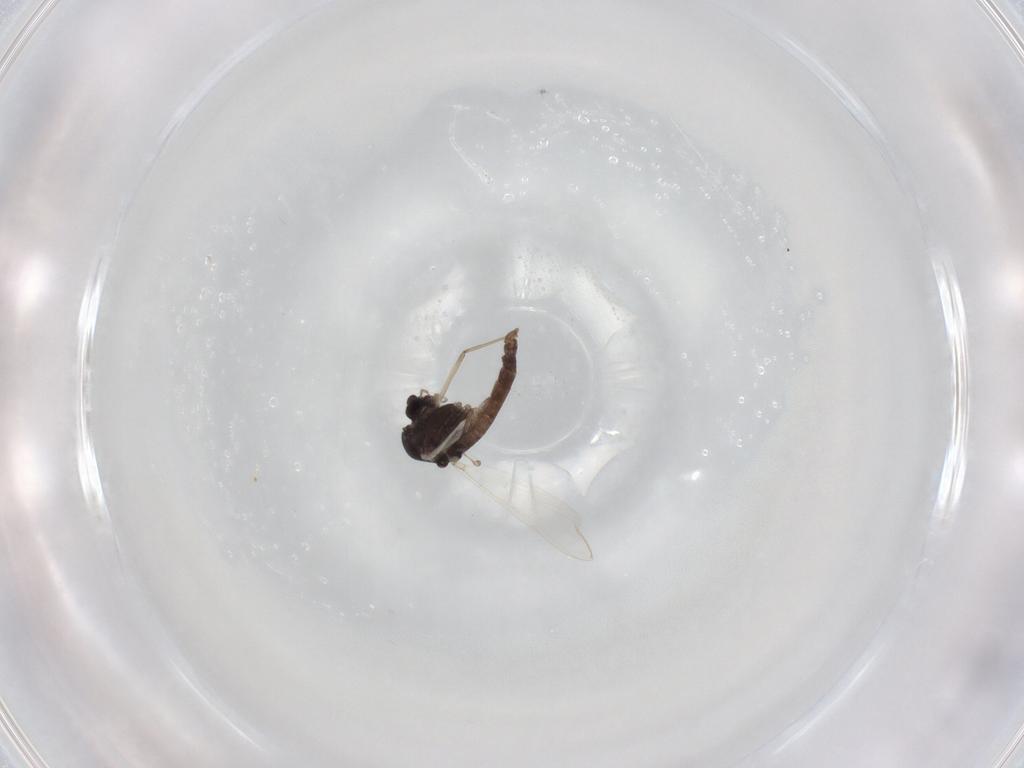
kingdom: Animalia
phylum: Arthropoda
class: Insecta
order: Diptera
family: Chironomidae
